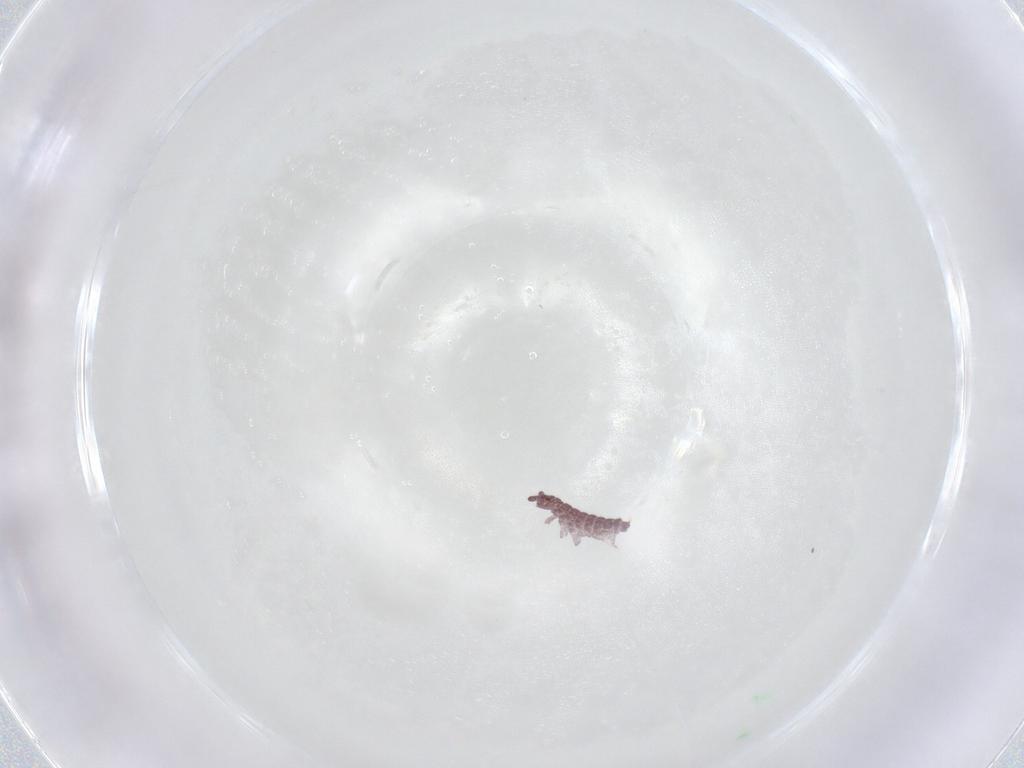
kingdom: Animalia
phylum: Arthropoda
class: Collembola
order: Poduromorpha
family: Hypogastruridae
